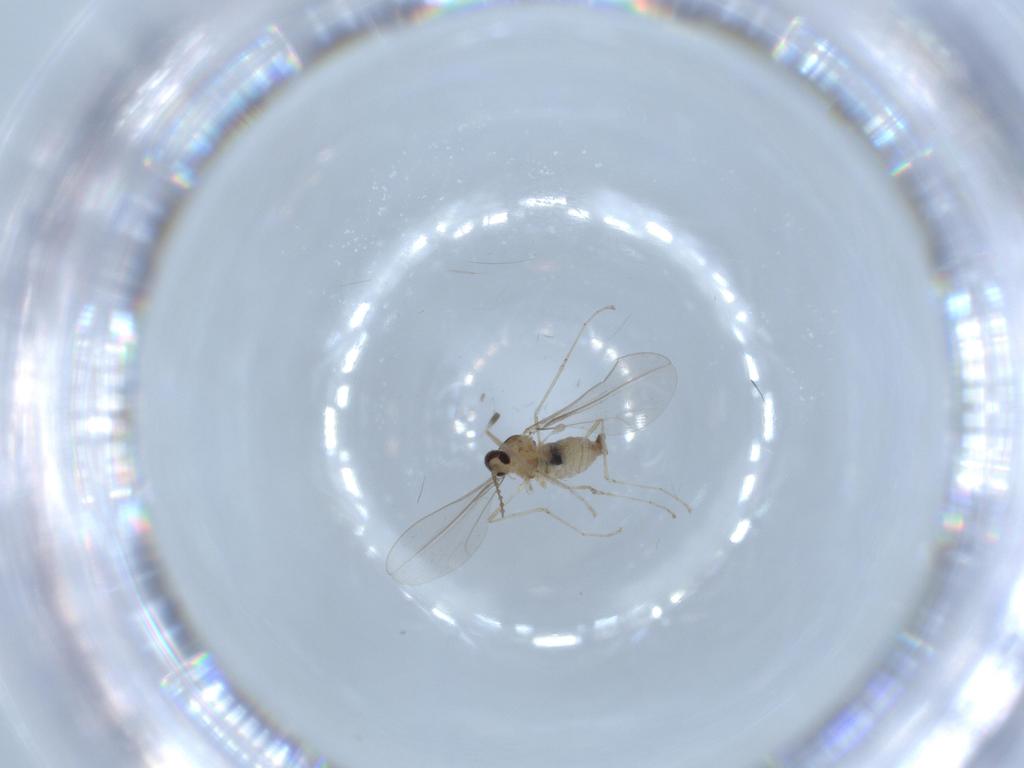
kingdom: Animalia
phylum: Arthropoda
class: Insecta
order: Diptera
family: Cecidomyiidae
